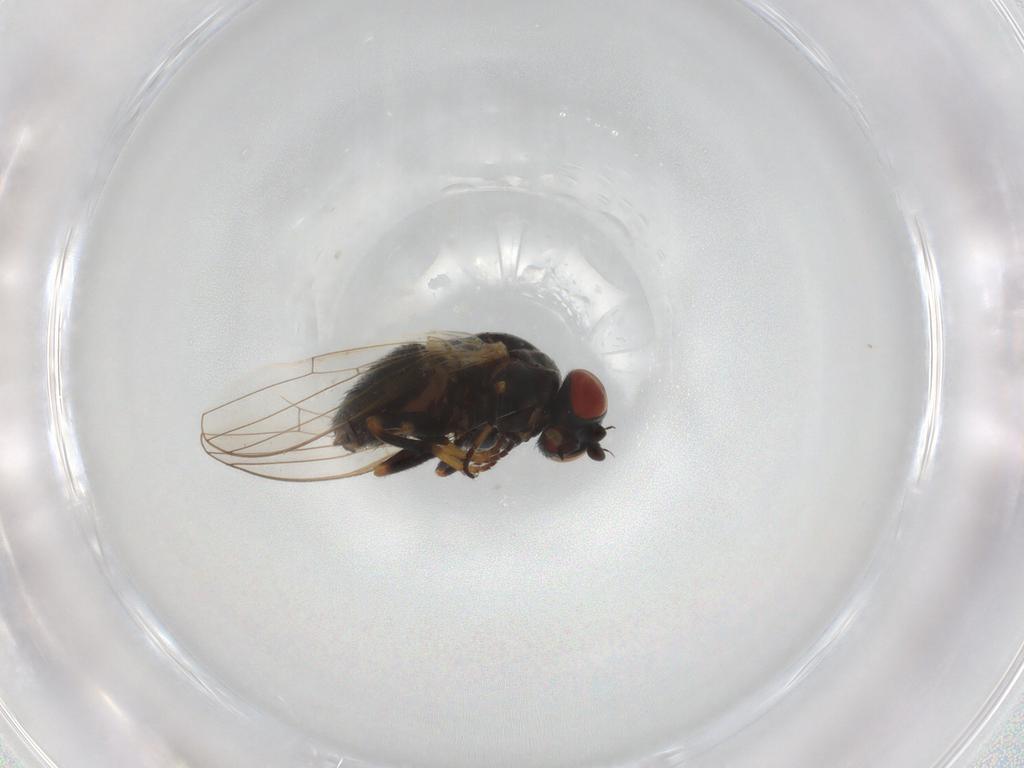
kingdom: Animalia
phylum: Arthropoda
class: Insecta
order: Diptera
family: Chamaemyiidae
